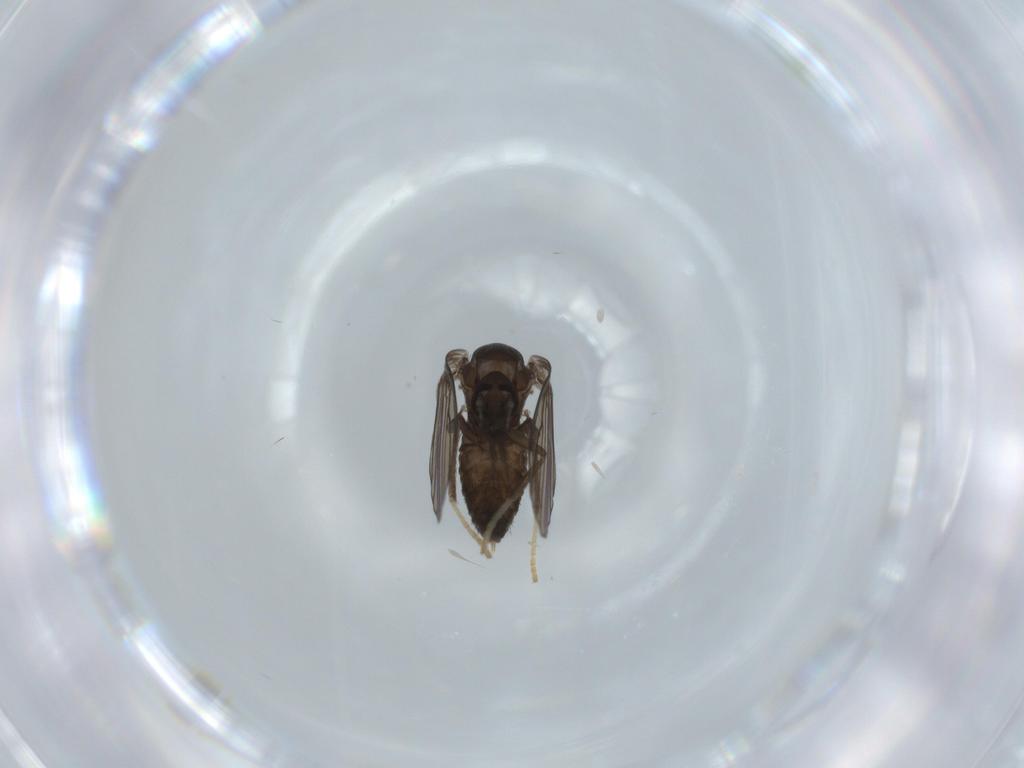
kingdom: Animalia
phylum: Arthropoda
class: Insecta
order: Diptera
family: Psychodidae
